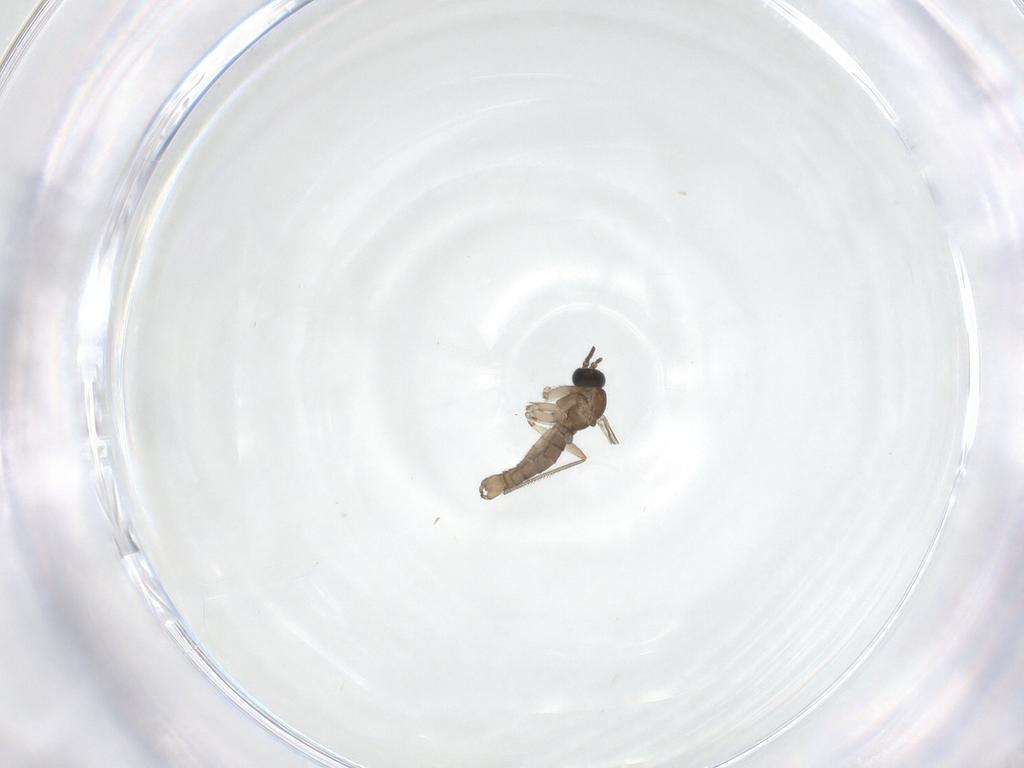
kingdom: Animalia
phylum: Arthropoda
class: Insecta
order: Diptera
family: Sciaridae
